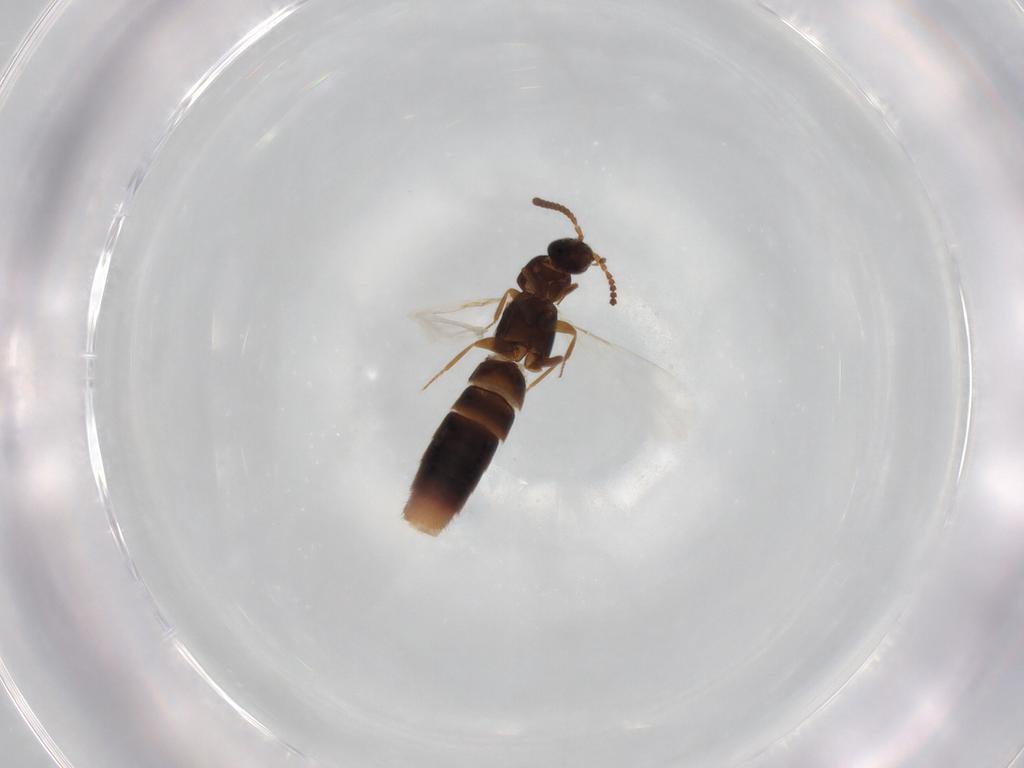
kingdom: Animalia
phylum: Arthropoda
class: Insecta
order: Coleoptera
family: Staphylinidae
